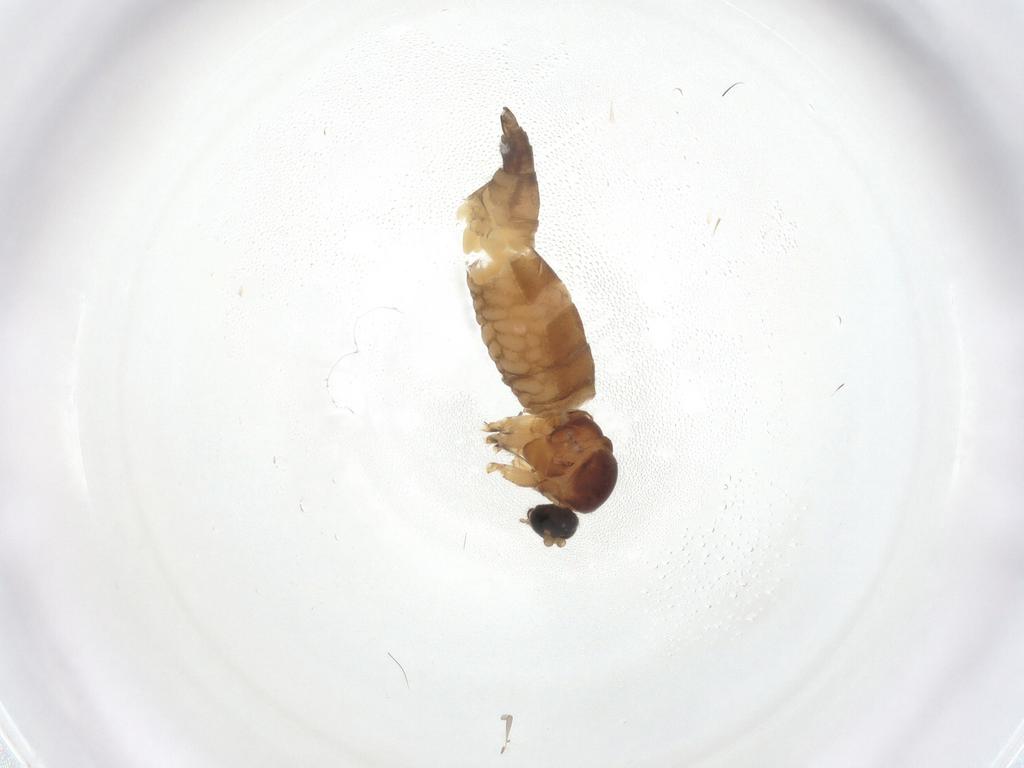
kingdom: Animalia
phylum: Arthropoda
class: Insecta
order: Diptera
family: Sciaridae
